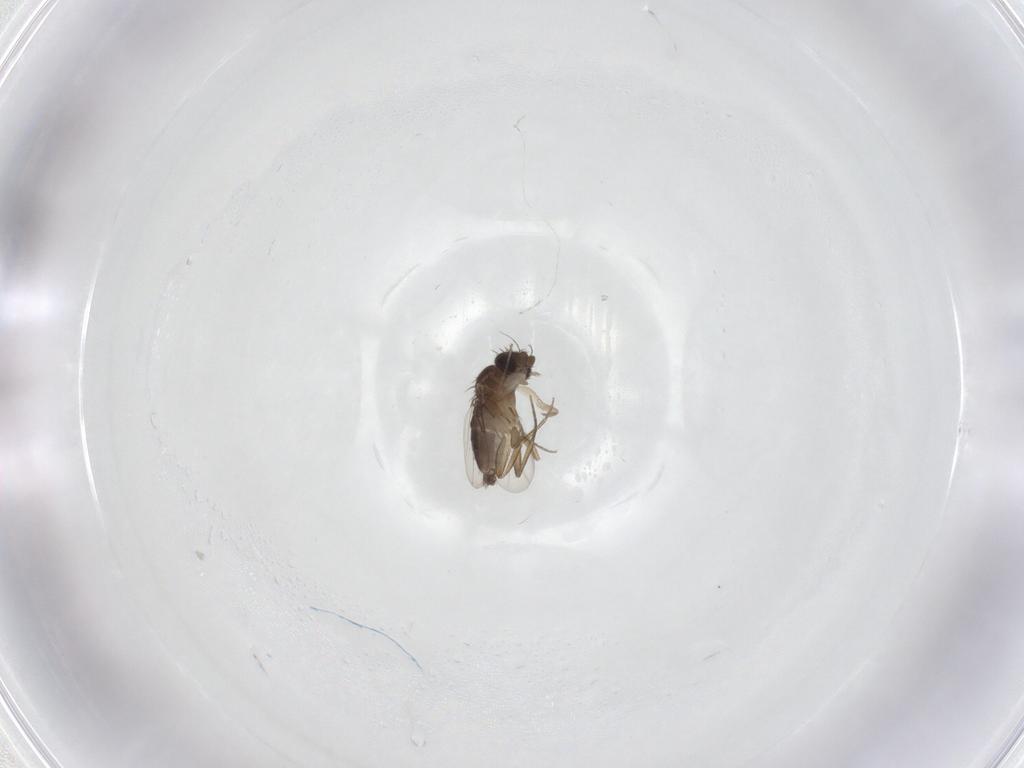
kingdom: Animalia
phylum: Arthropoda
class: Insecta
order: Diptera
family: Phoridae
